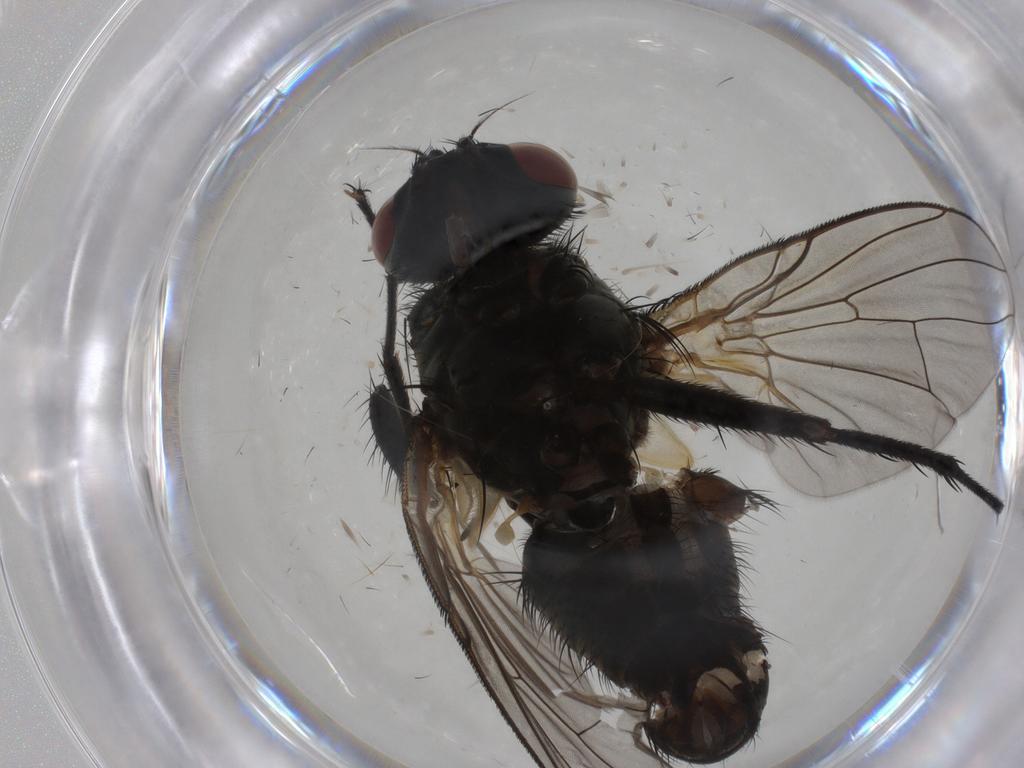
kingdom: Animalia
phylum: Arthropoda
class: Insecta
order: Diptera
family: Muscidae
